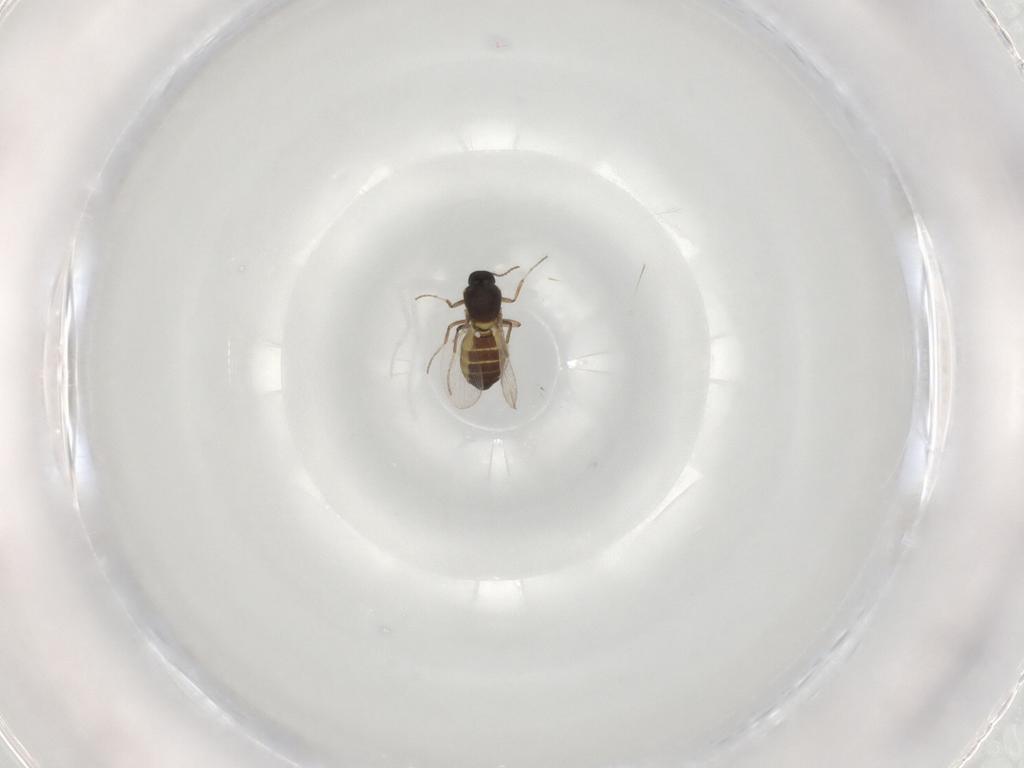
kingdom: Animalia
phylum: Arthropoda
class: Insecta
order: Diptera
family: Ceratopogonidae
